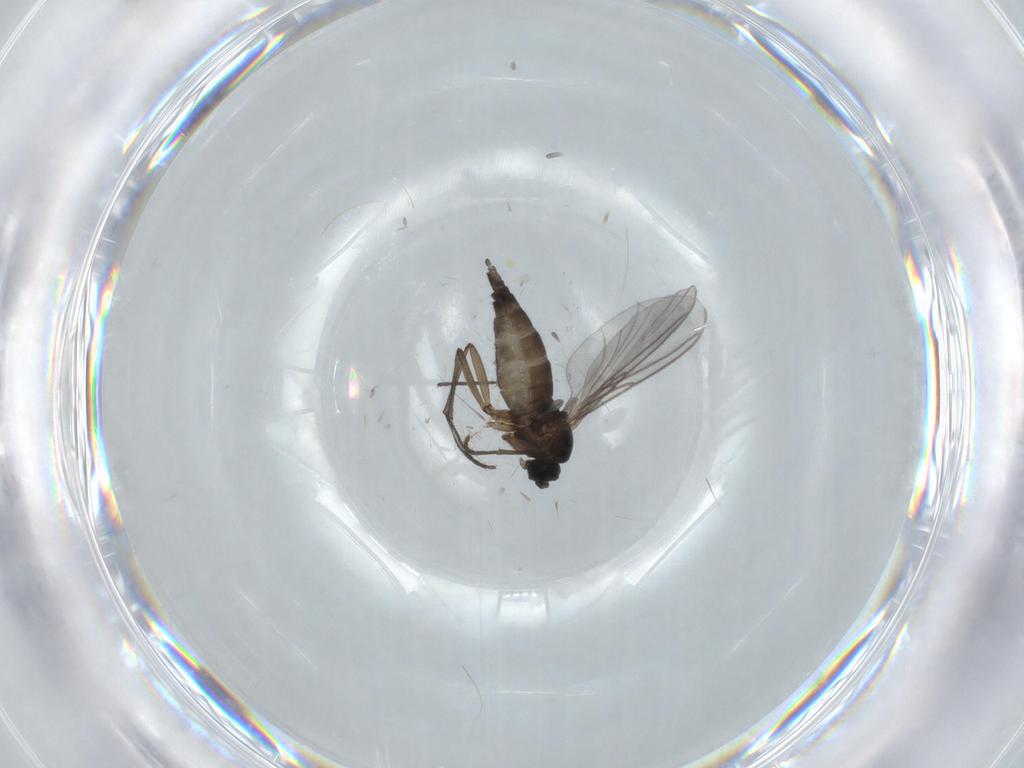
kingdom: Animalia
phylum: Arthropoda
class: Insecta
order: Diptera
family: Sciaridae
